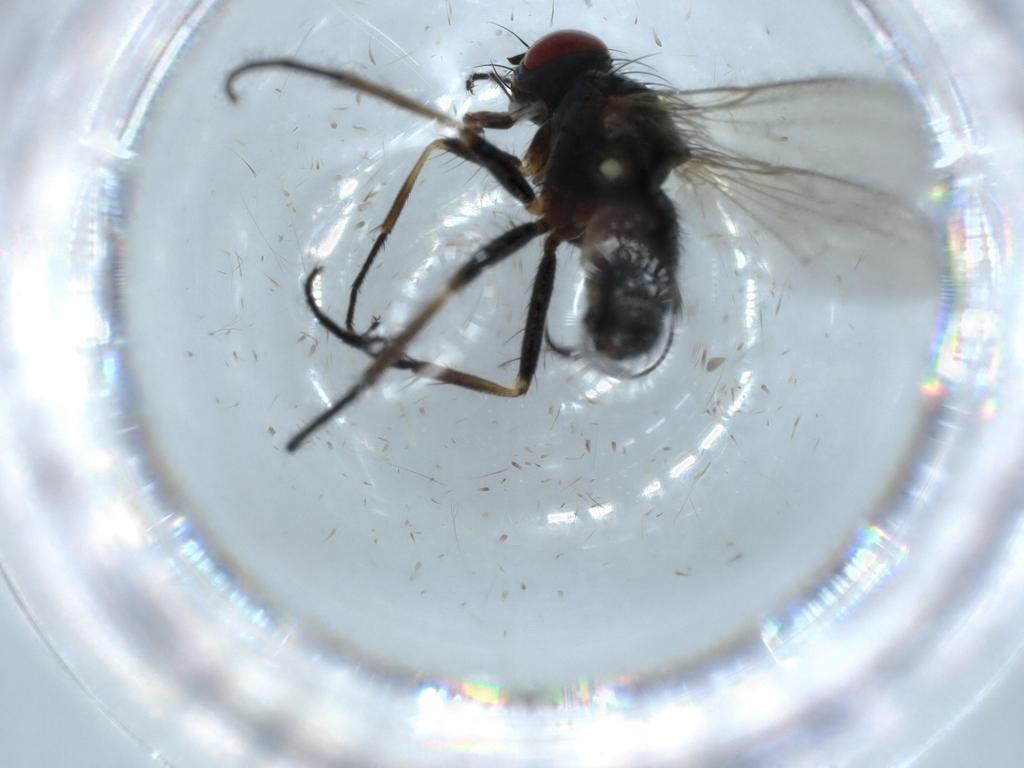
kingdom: Animalia
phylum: Arthropoda
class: Insecta
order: Diptera
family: Muscidae
